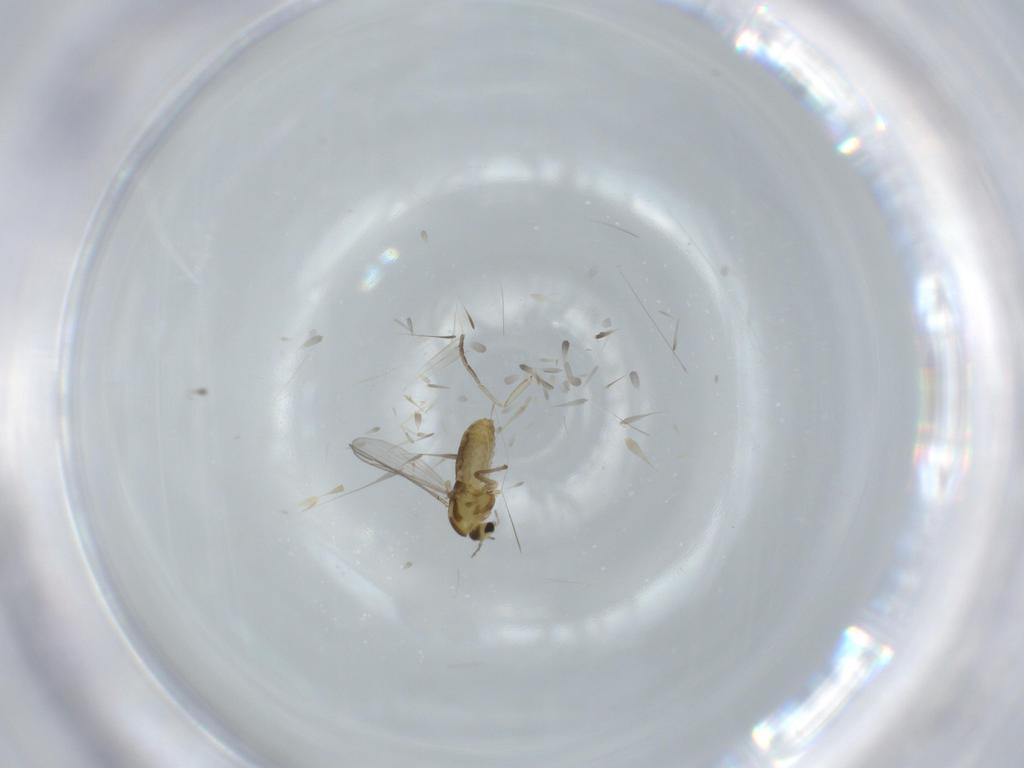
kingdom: Animalia
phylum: Arthropoda
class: Insecta
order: Diptera
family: Chironomidae
